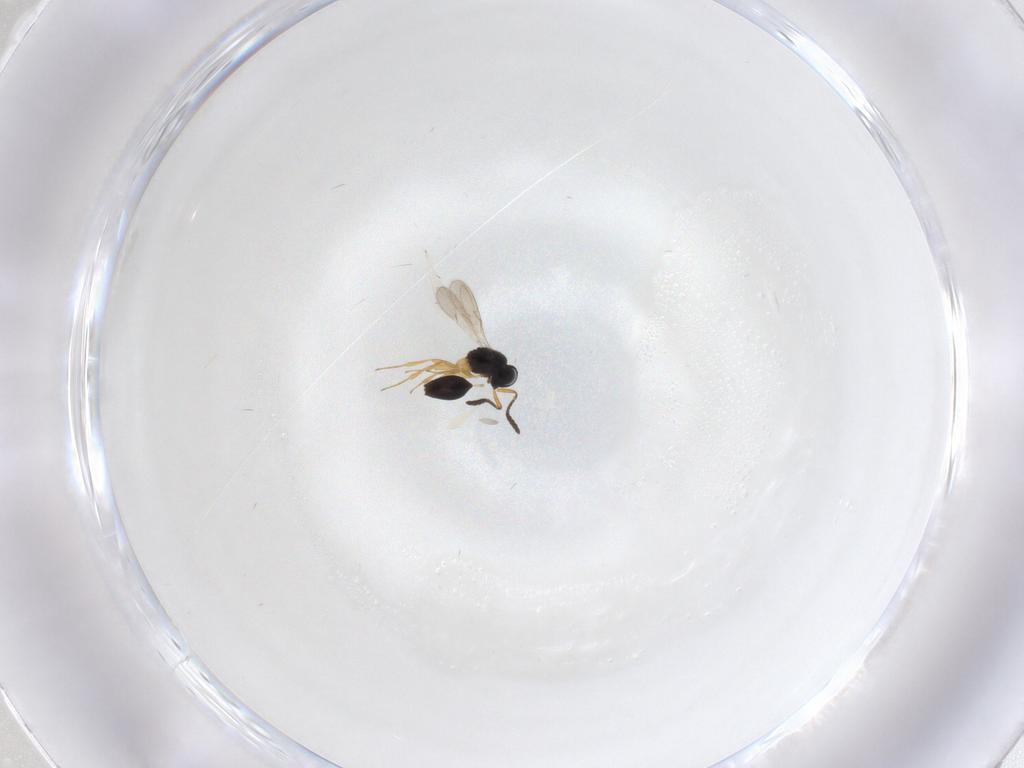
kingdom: Animalia
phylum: Arthropoda
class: Insecta
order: Hymenoptera
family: Scelionidae
